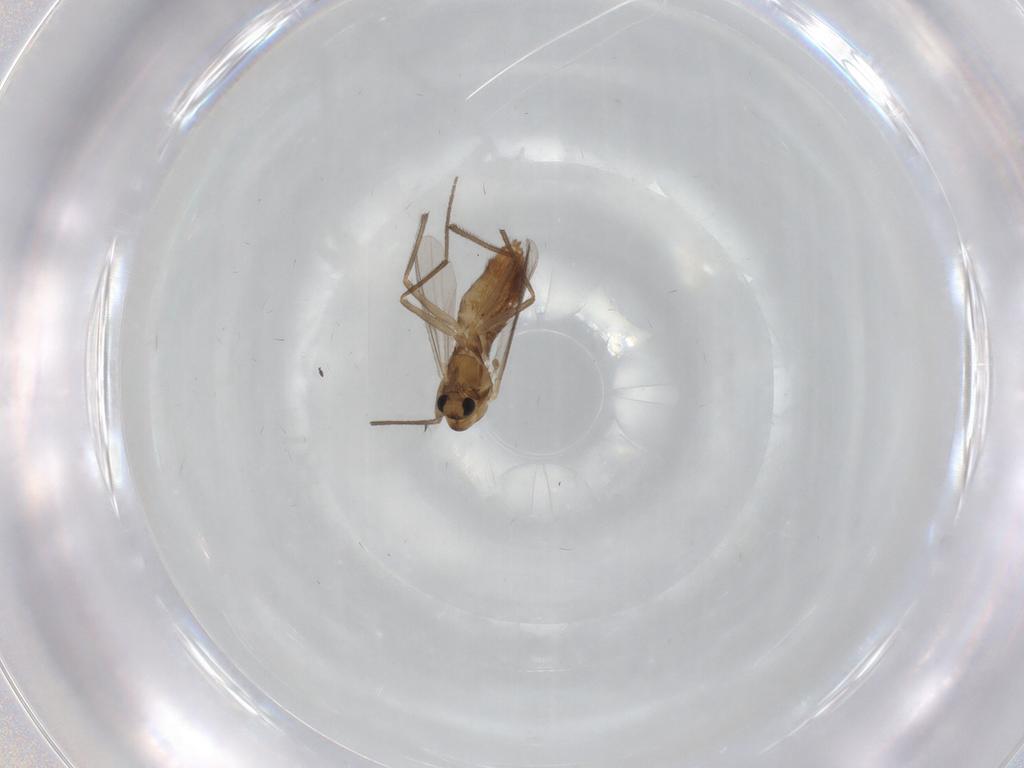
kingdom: Animalia
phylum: Arthropoda
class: Insecta
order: Diptera
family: Chironomidae
